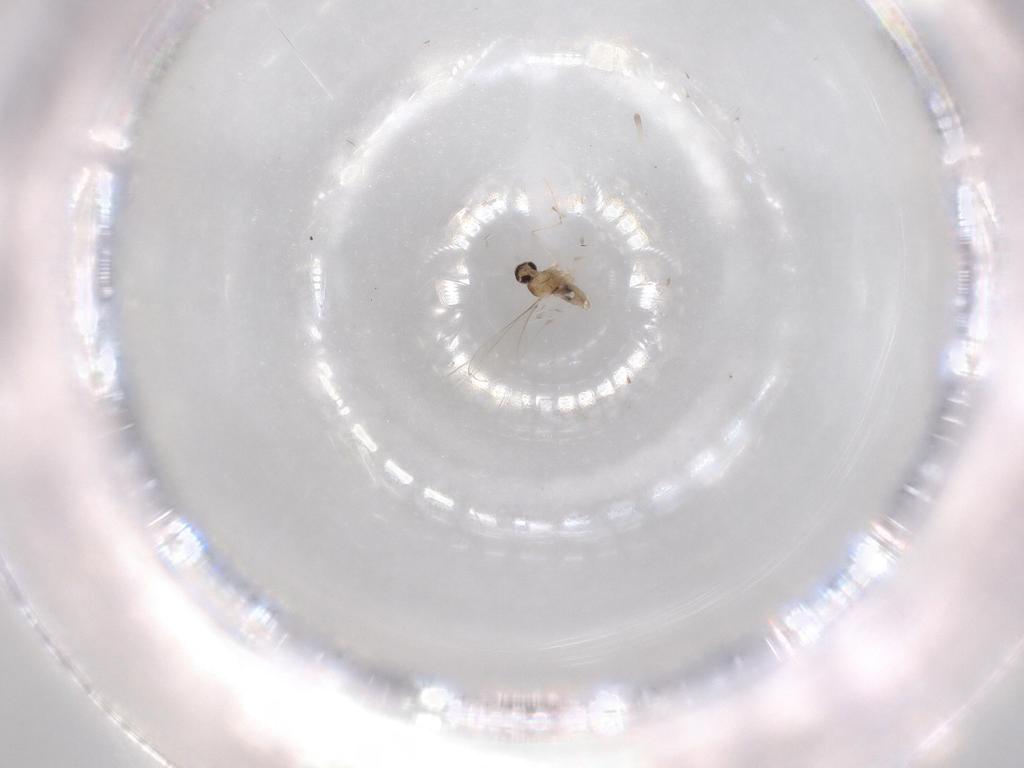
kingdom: Animalia
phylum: Arthropoda
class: Insecta
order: Diptera
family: Cecidomyiidae
